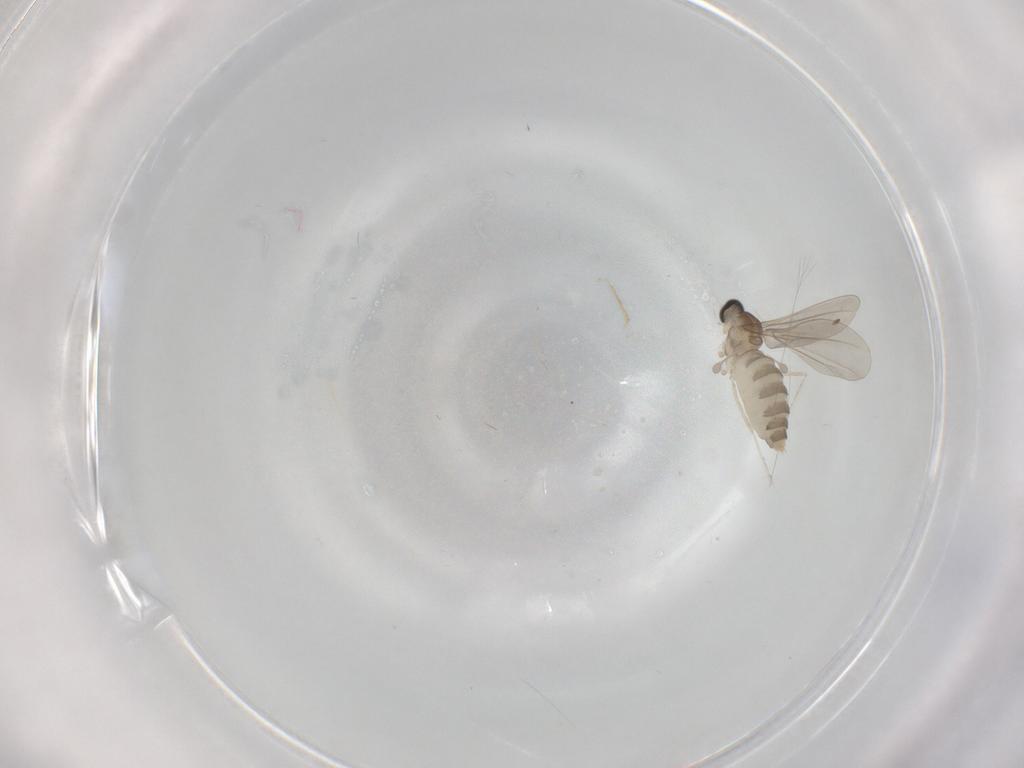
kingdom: Animalia
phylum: Arthropoda
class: Insecta
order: Diptera
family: Cecidomyiidae
